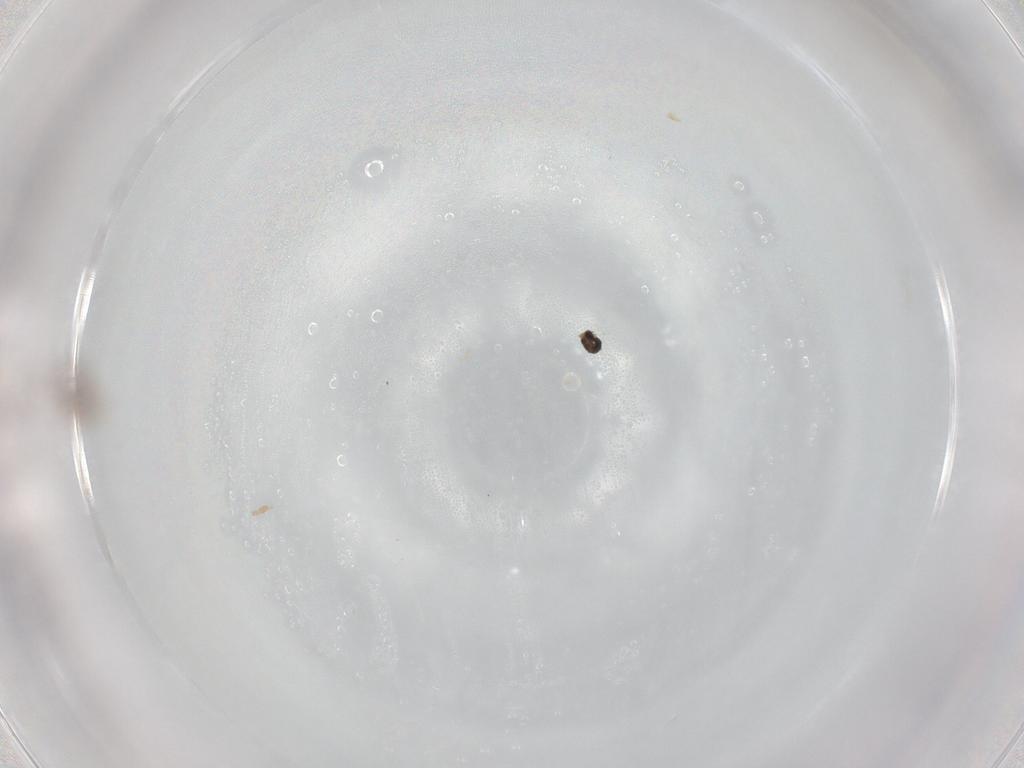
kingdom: Animalia
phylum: Arthropoda
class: Insecta
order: Diptera
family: Cecidomyiidae
